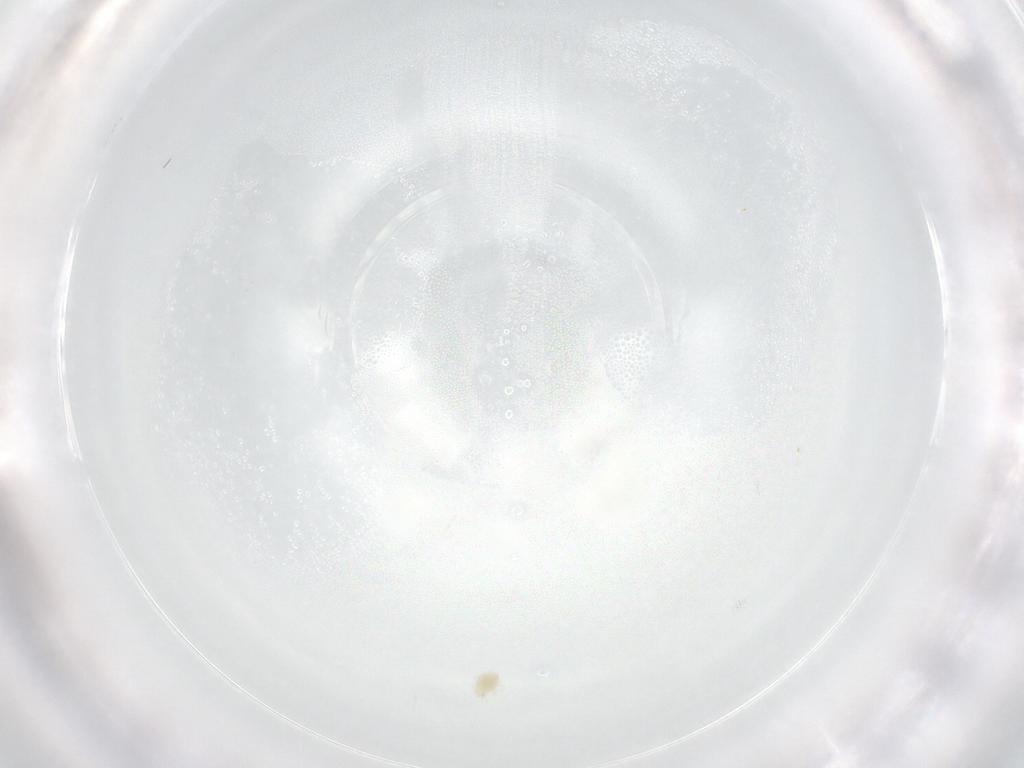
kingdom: Animalia
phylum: Arthropoda
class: Arachnida
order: Trombidiformes
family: Tetranychidae
